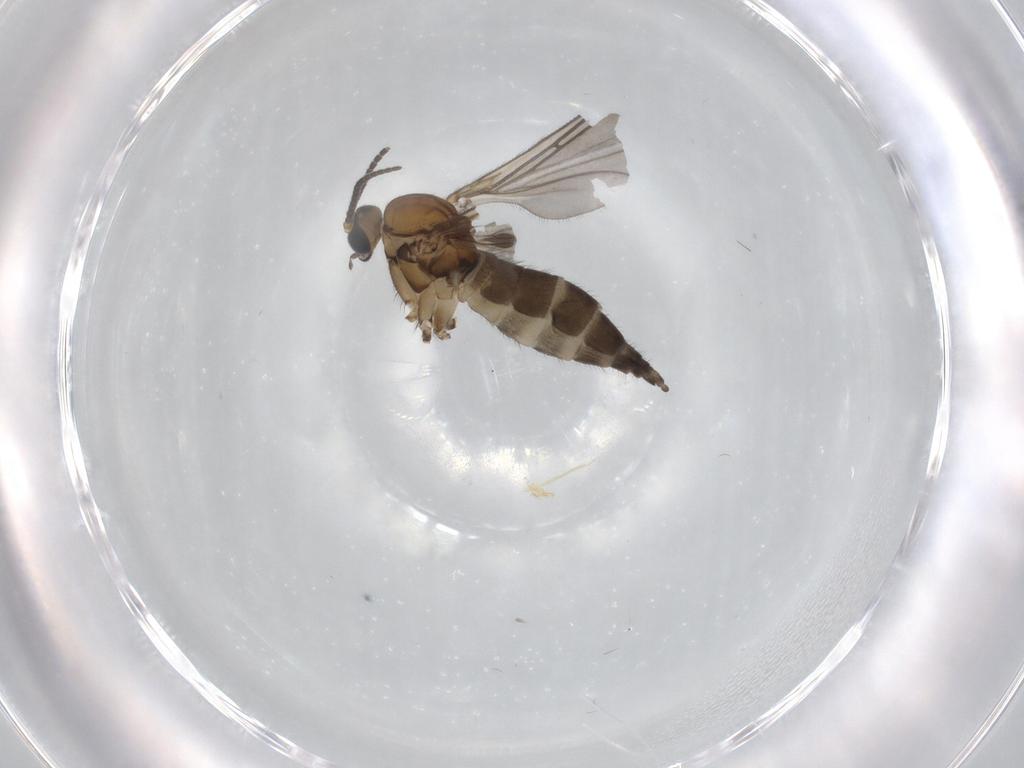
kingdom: Animalia
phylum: Arthropoda
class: Insecta
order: Diptera
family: Sciaridae
